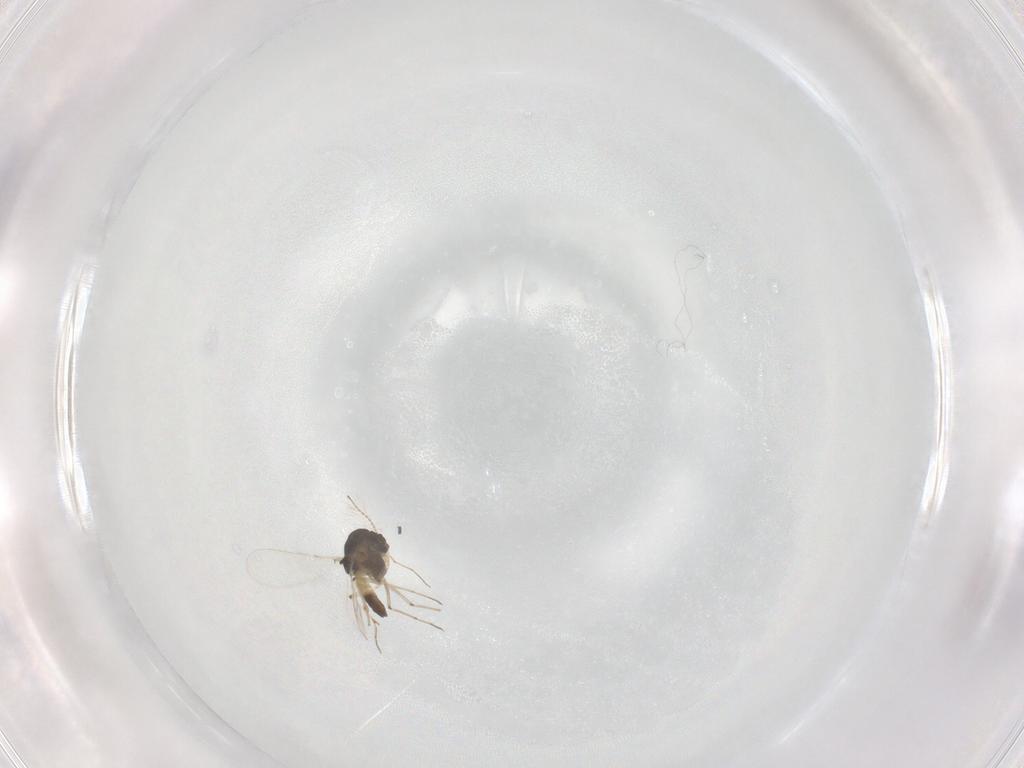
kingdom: Animalia
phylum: Arthropoda
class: Insecta
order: Diptera
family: Chironomidae
